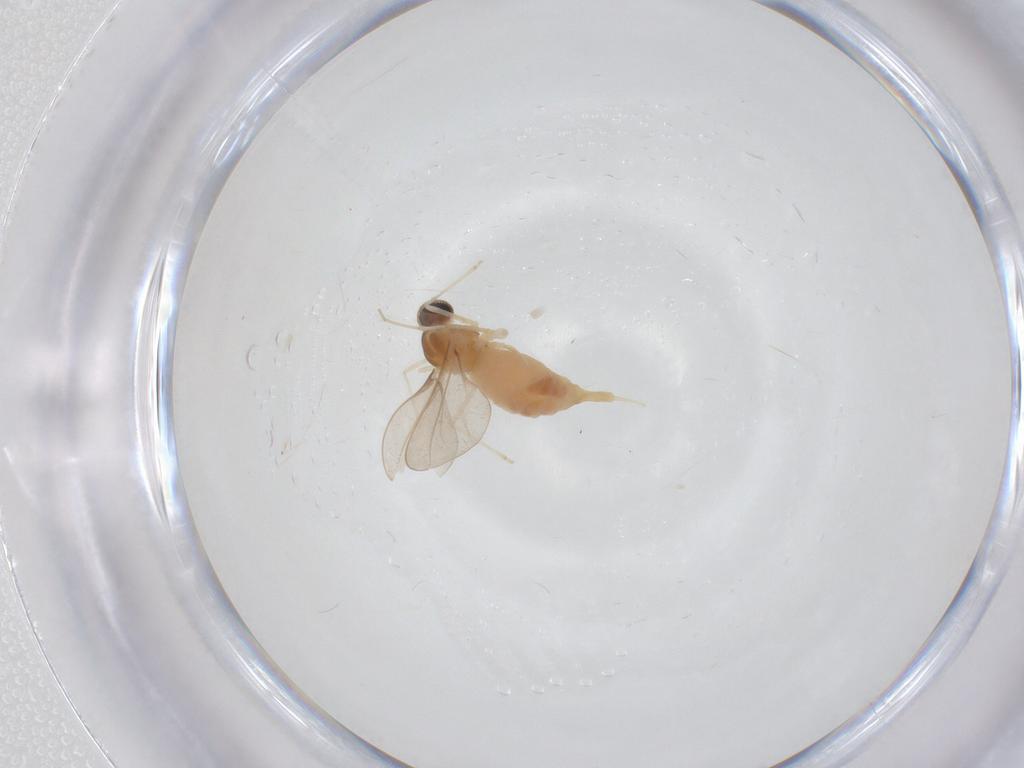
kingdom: Animalia
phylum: Arthropoda
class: Insecta
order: Diptera
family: Cecidomyiidae
